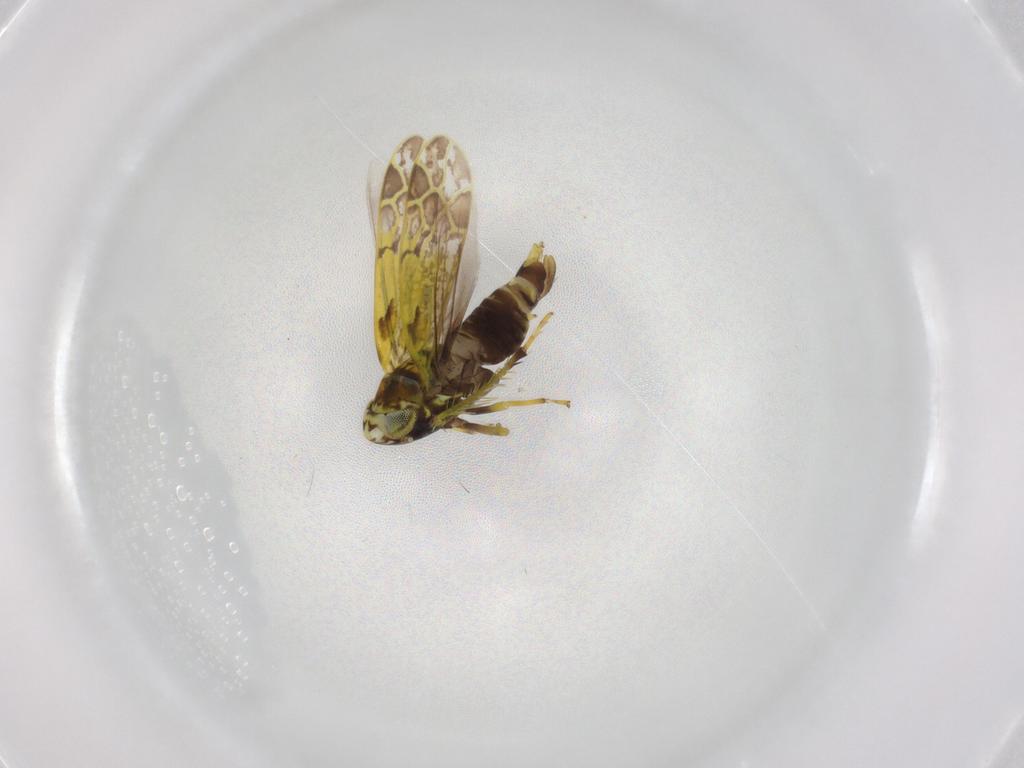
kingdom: Animalia
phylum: Arthropoda
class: Insecta
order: Hemiptera
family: Cicadellidae
